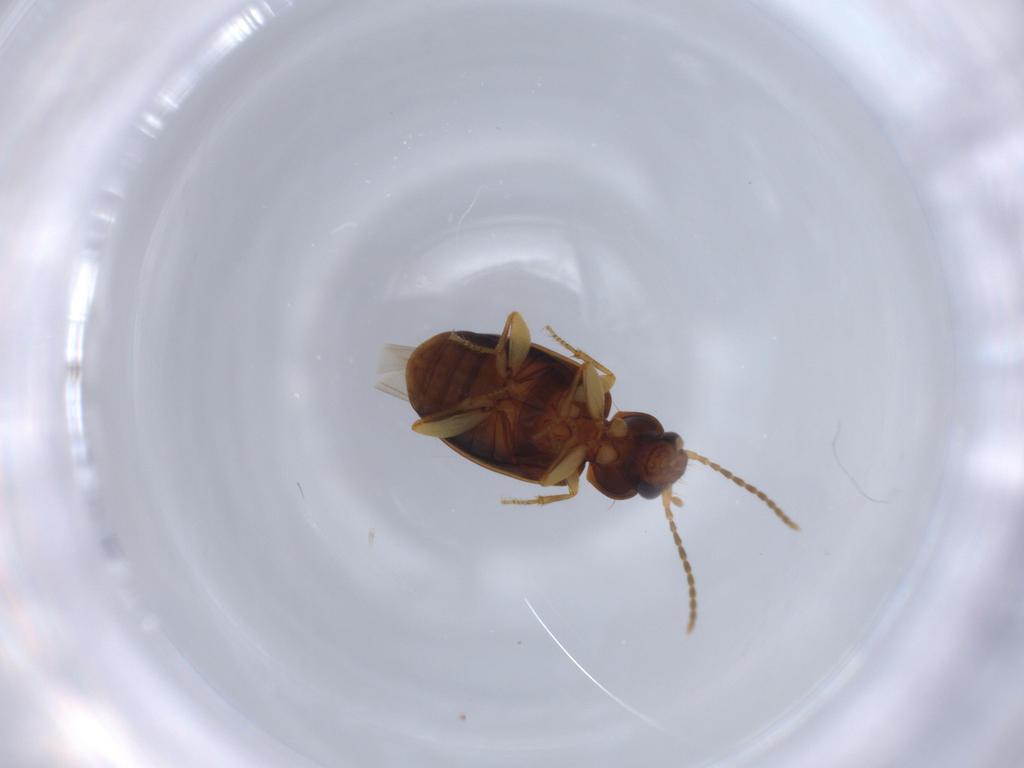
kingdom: Animalia
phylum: Arthropoda
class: Insecta
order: Coleoptera
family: Carabidae
